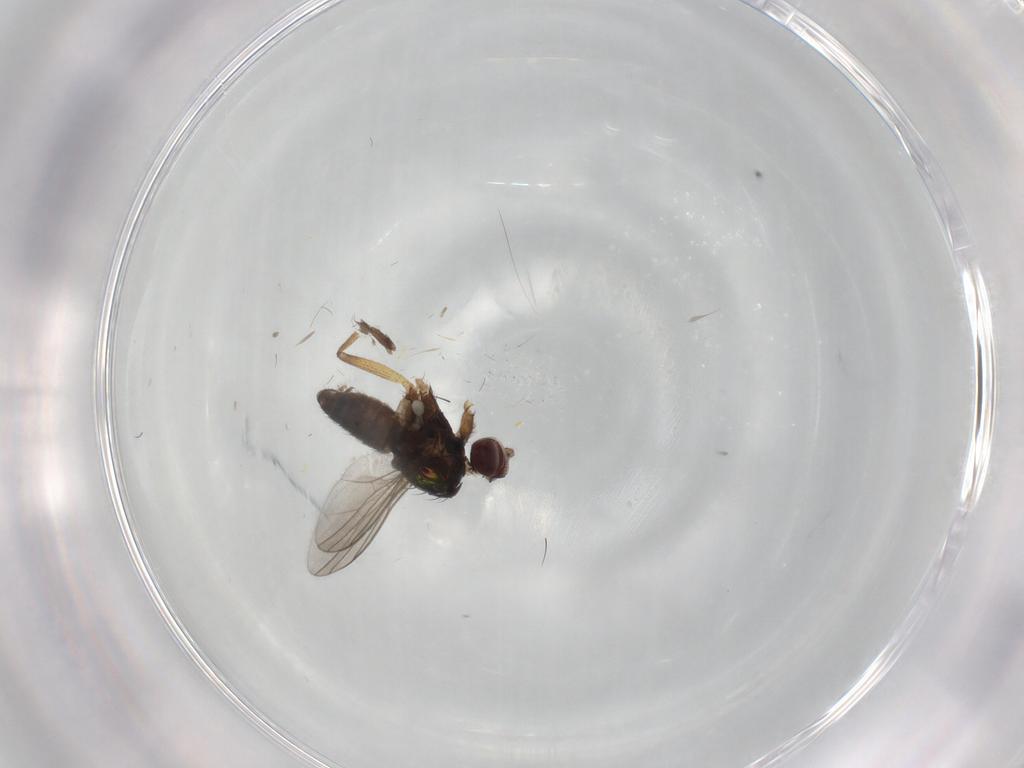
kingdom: Animalia
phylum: Arthropoda
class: Insecta
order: Diptera
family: Dolichopodidae
